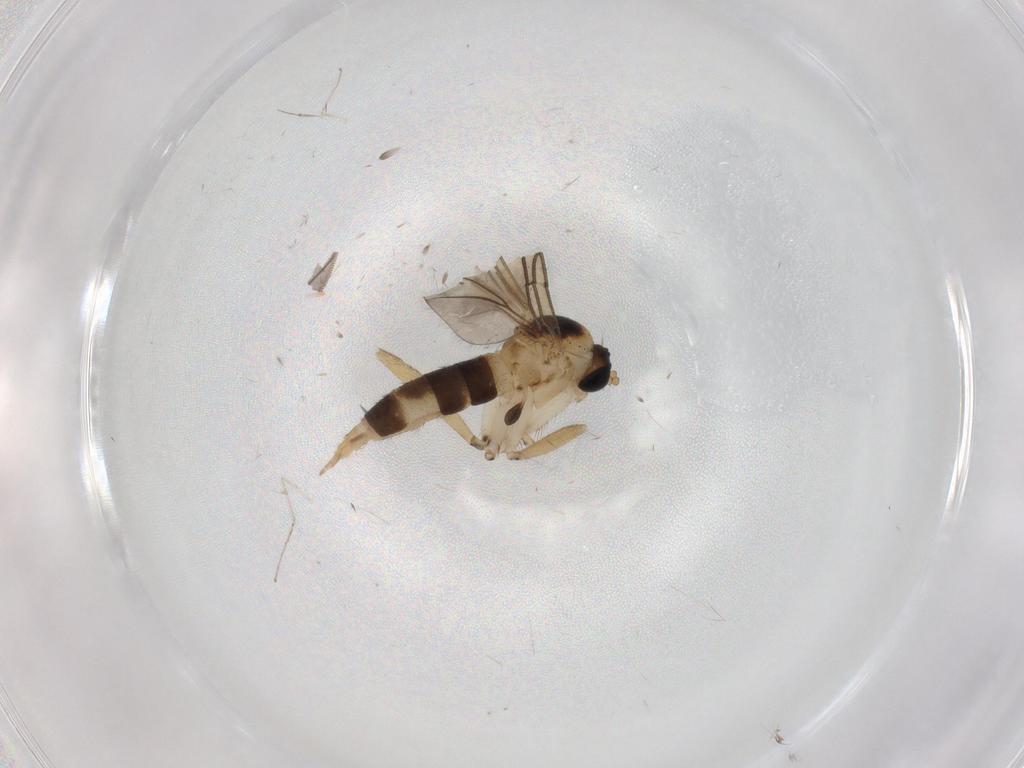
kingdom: Animalia
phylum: Arthropoda
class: Insecta
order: Diptera
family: Sciaridae
